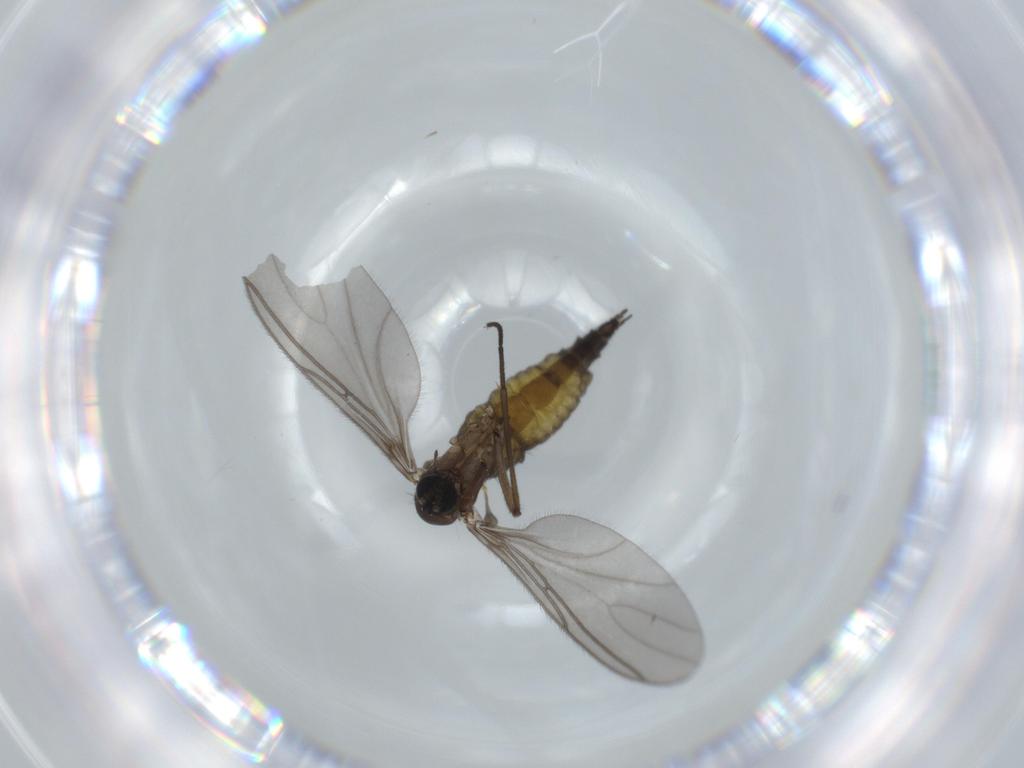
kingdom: Animalia
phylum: Arthropoda
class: Insecta
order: Diptera
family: Sciaridae
